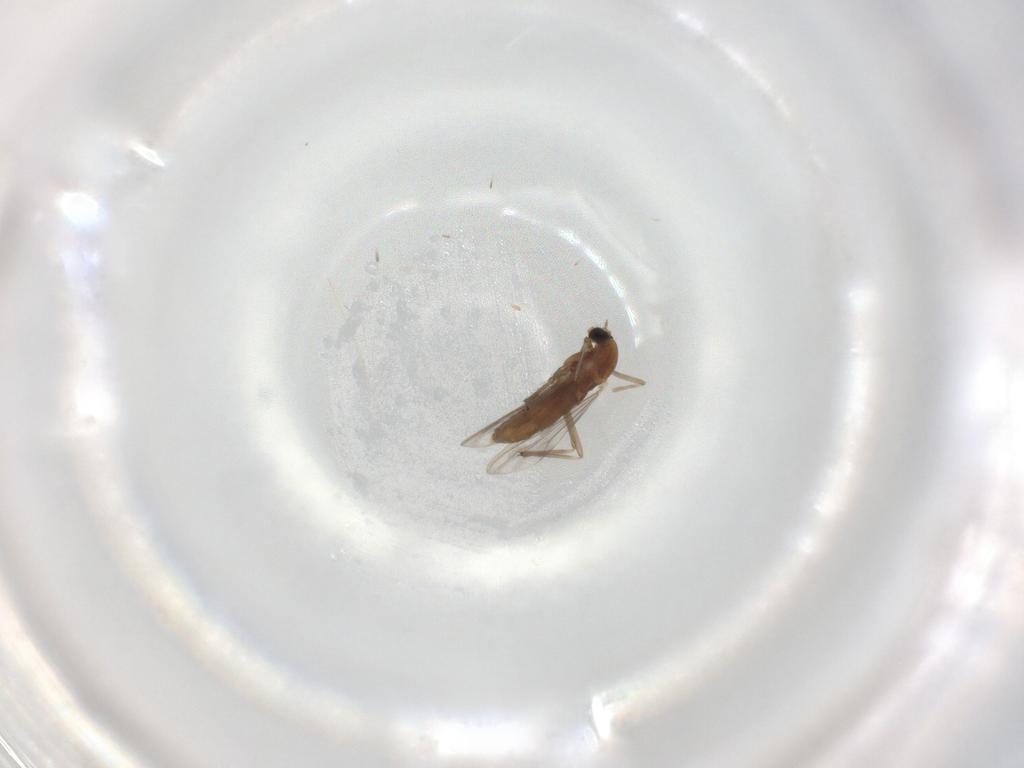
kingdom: Animalia
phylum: Arthropoda
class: Insecta
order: Diptera
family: Chironomidae
